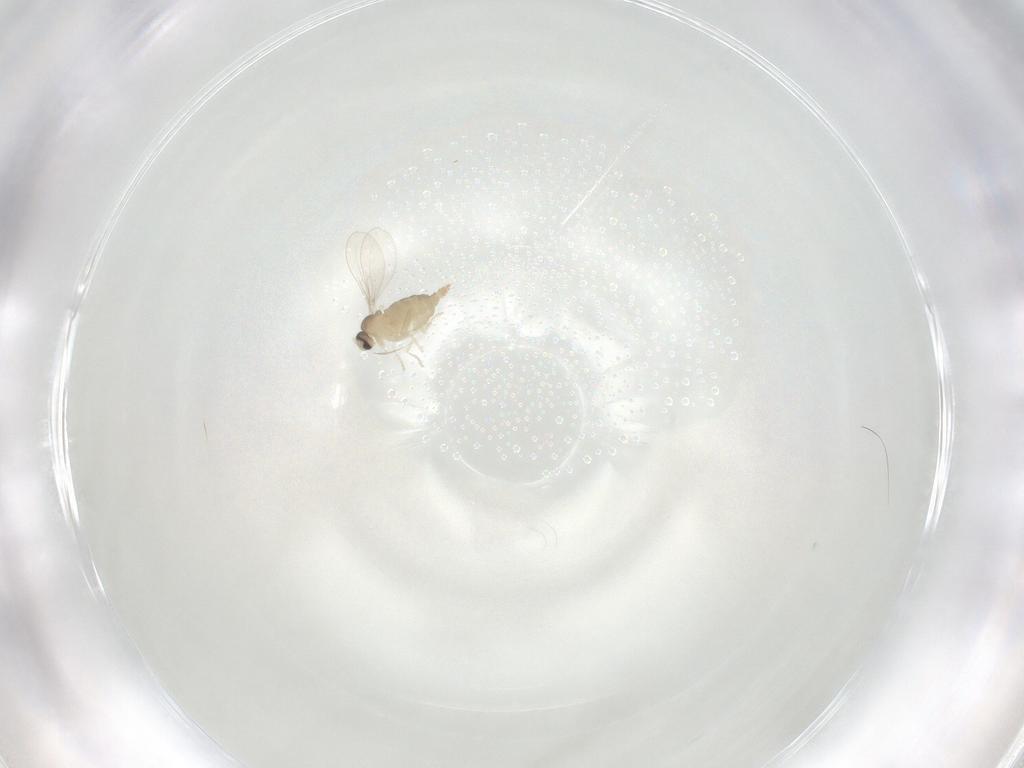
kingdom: Animalia
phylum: Arthropoda
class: Insecta
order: Diptera
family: Cecidomyiidae
